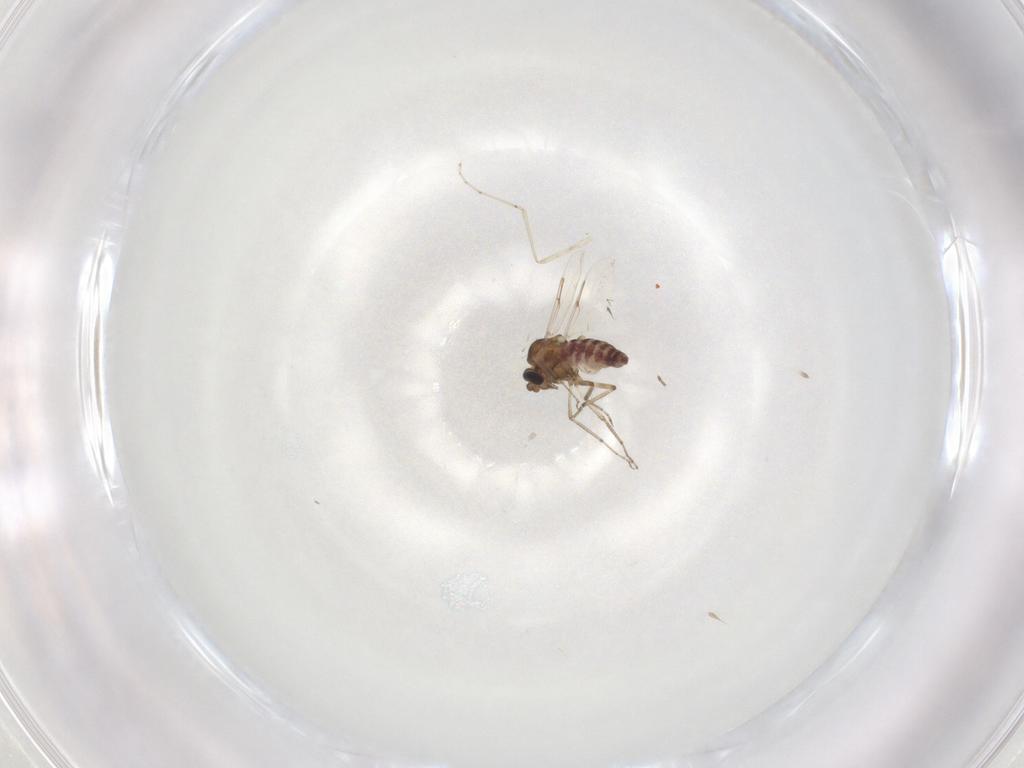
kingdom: Animalia
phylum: Arthropoda
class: Insecta
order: Diptera
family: Ceratopogonidae
